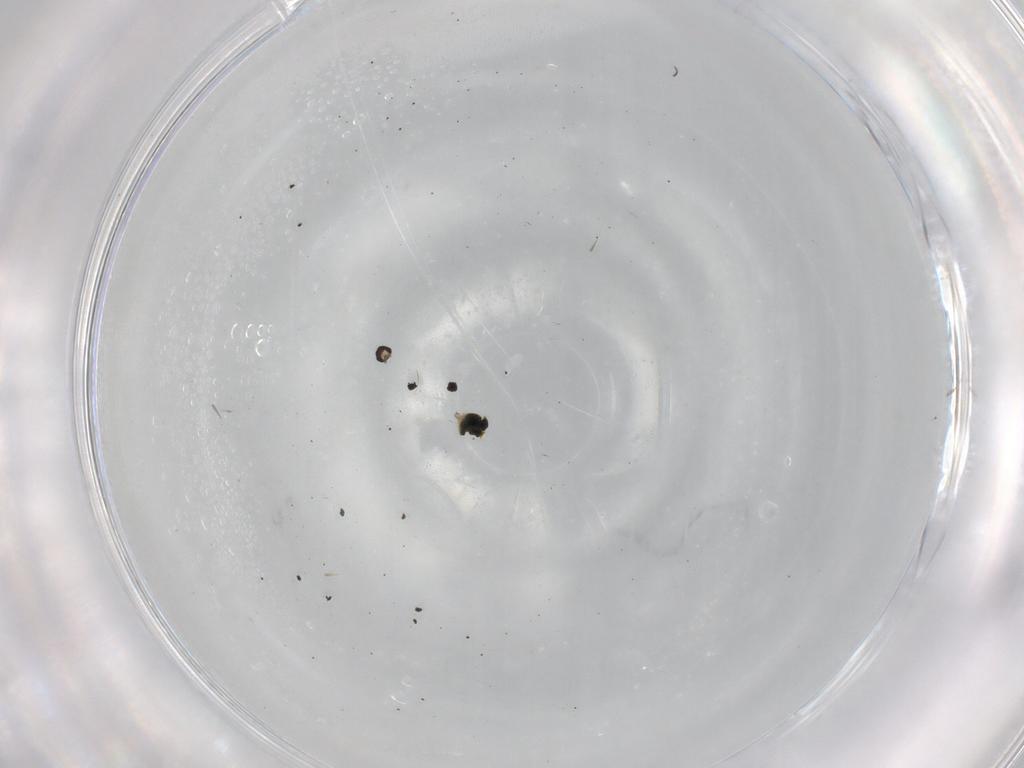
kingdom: Animalia
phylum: Arthropoda
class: Insecta
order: Diptera
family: Cecidomyiidae
